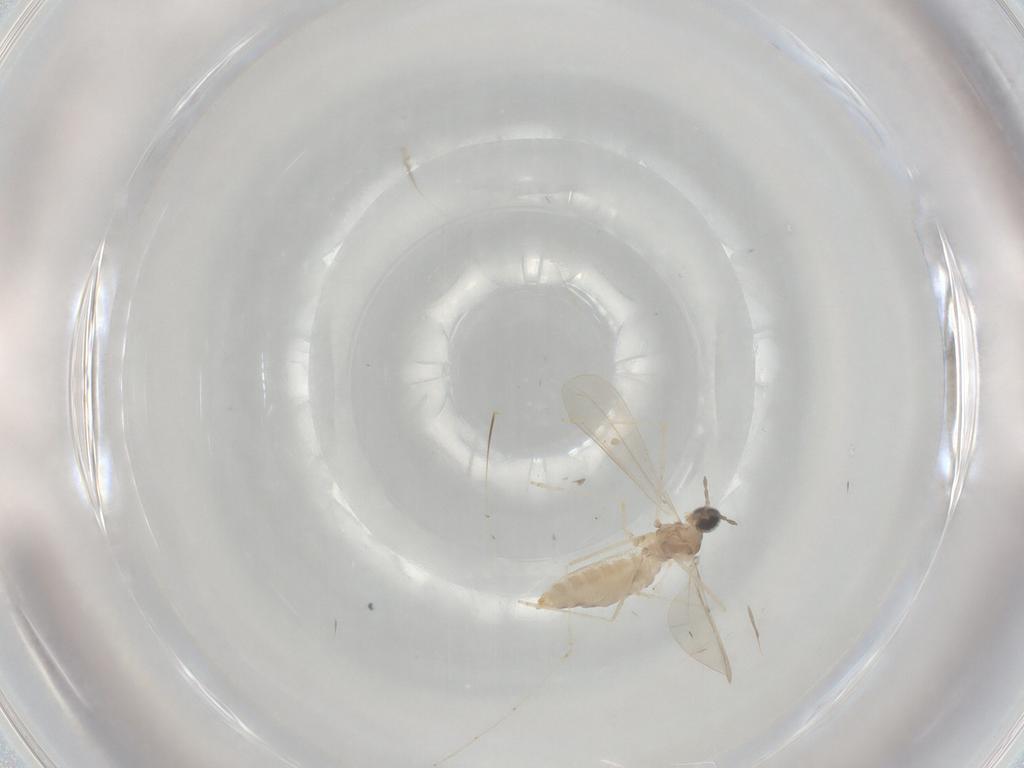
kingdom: Animalia
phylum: Arthropoda
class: Insecta
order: Diptera
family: Cecidomyiidae
